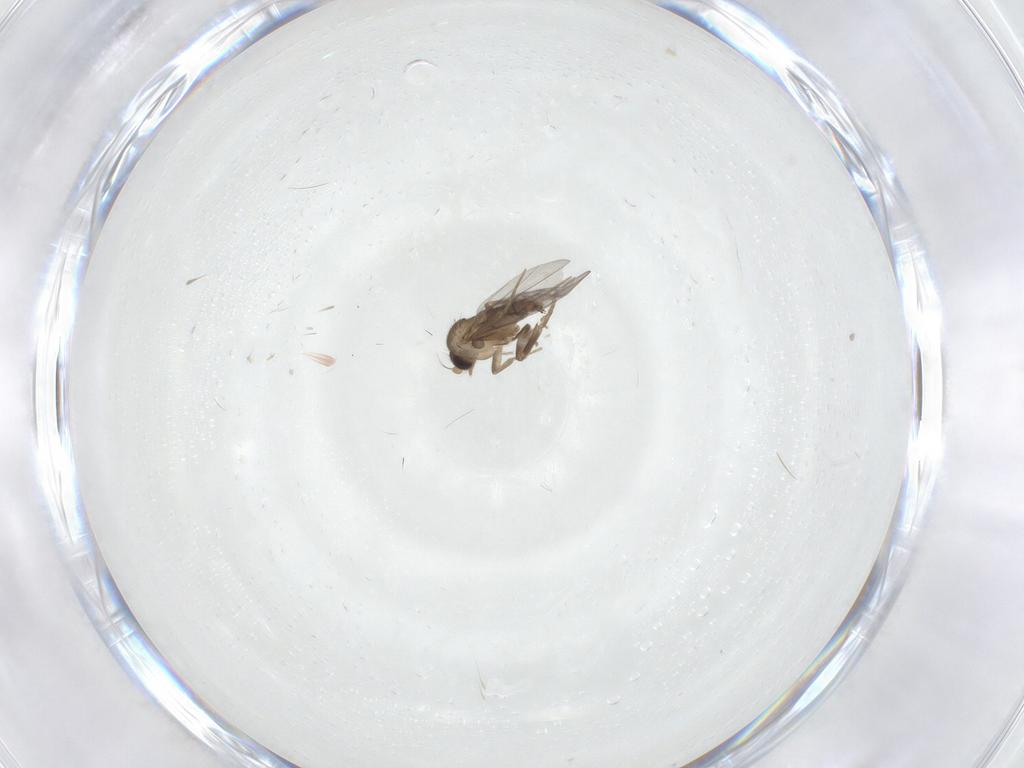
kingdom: Animalia
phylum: Arthropoda
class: Insecta
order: Diptera
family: Phoridae
